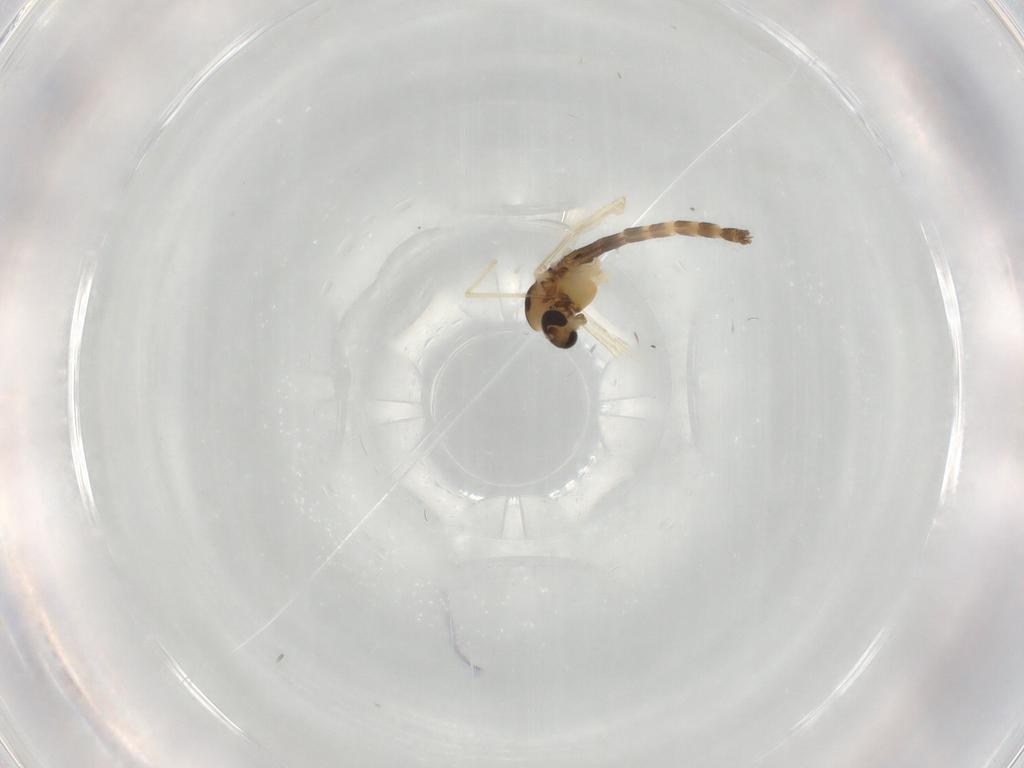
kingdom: Animalia
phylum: Arthropoda
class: Insecta
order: Diptera
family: Chironomidae
